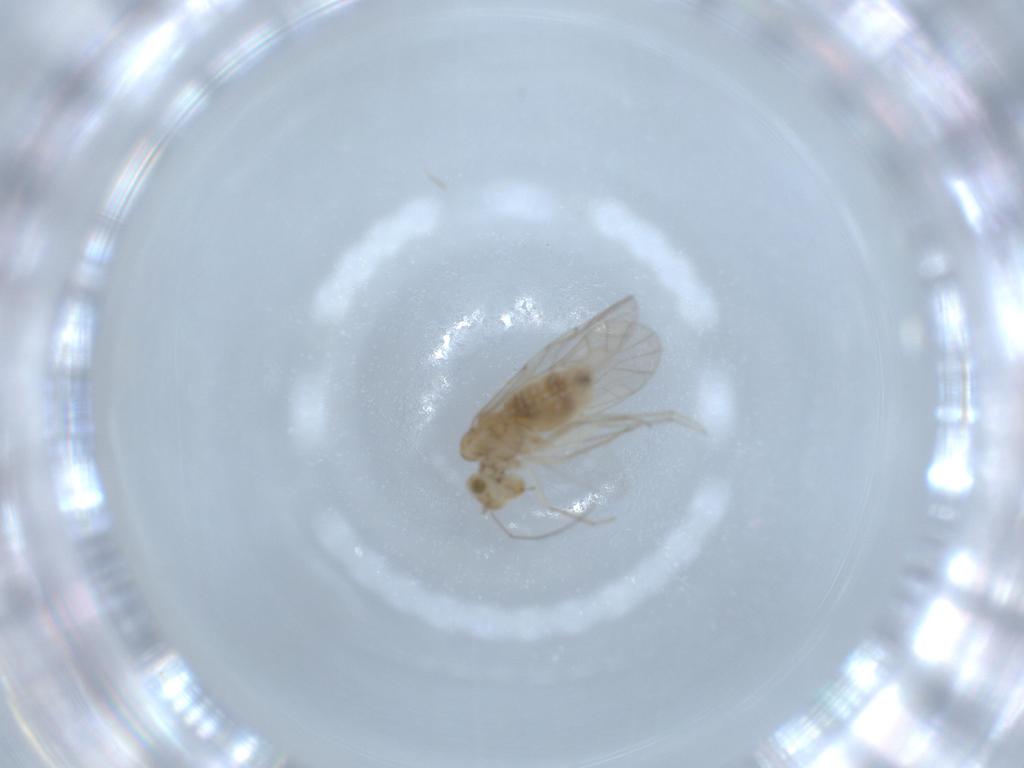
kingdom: Animalia
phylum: Arthropoda
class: Insecta
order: Psocodea
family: Lachesillidae
